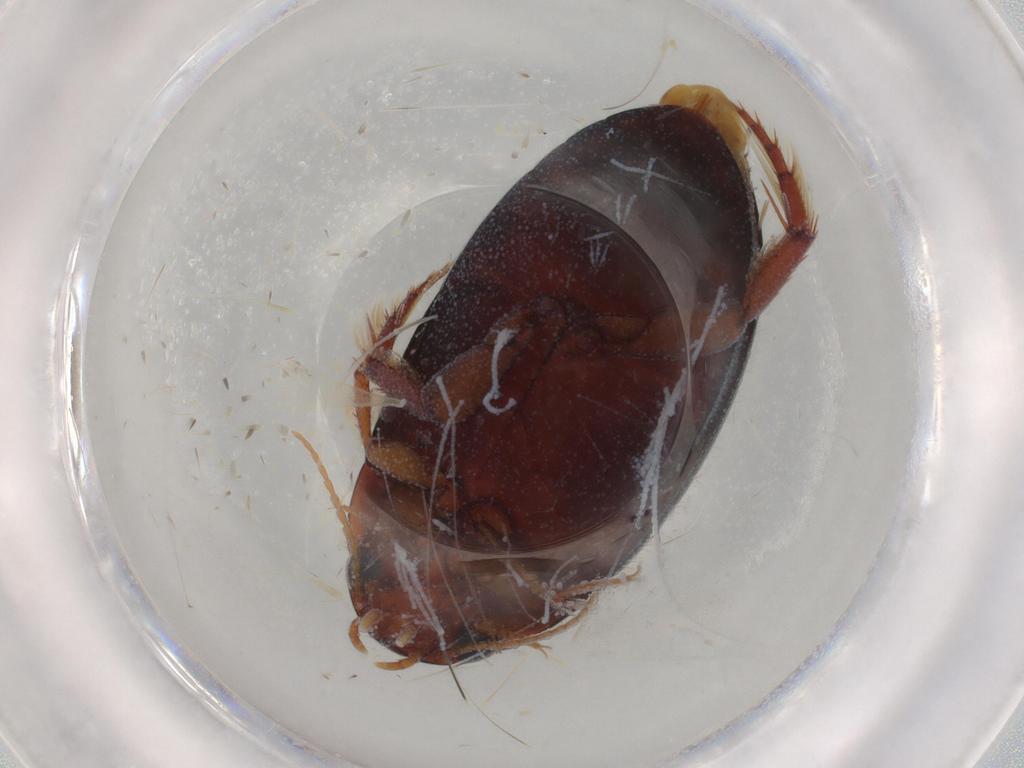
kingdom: Animalia
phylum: Arthropoda
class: Insecta
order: Coleoptera
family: Dytiscidae
